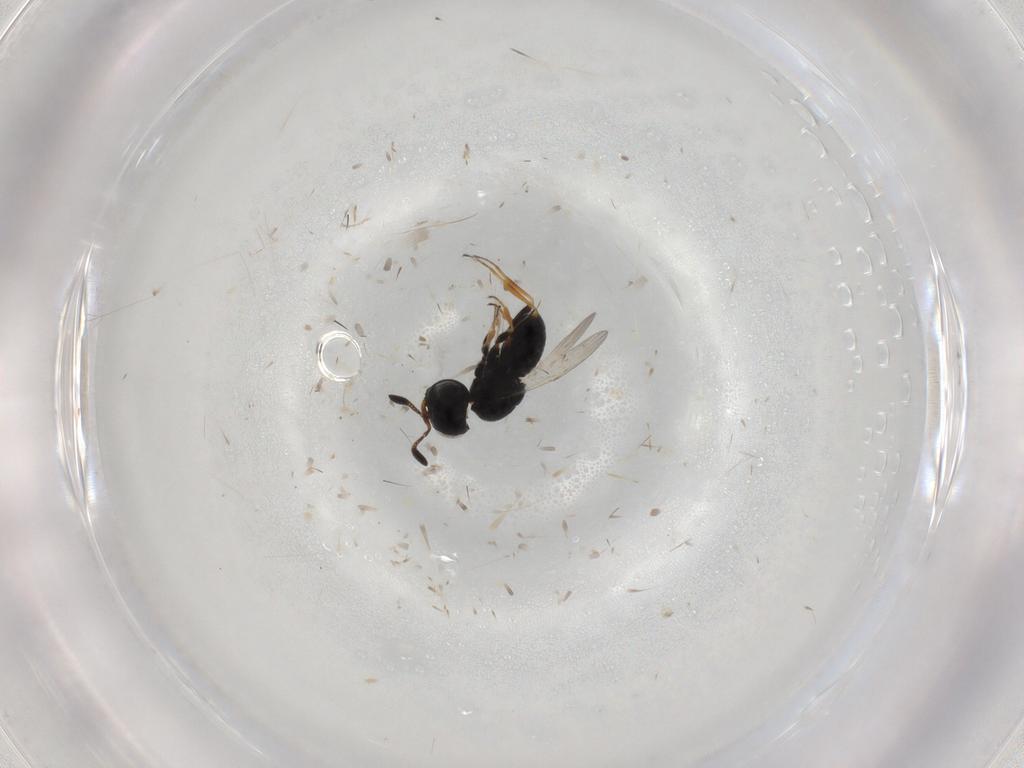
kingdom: Animalia
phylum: Arthropoda
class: Insecta
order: Coleoptera
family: Curculionidae
